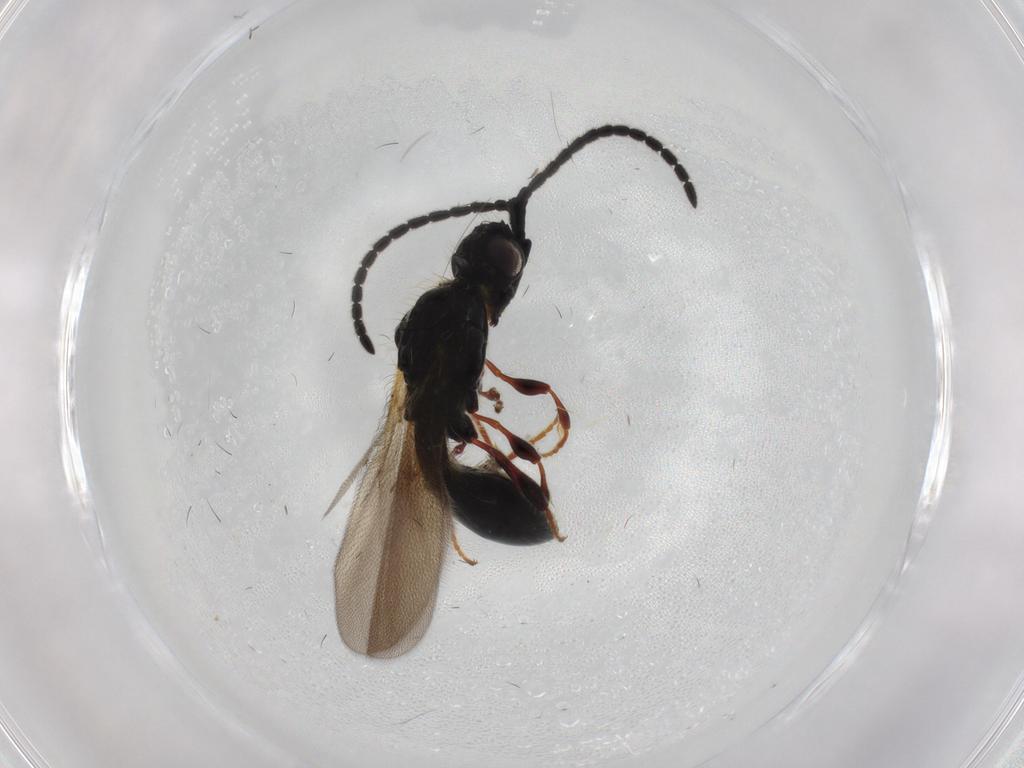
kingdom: Animalia
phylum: Arthropoda
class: Insecta
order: Hymenoptera
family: Diapriidae
